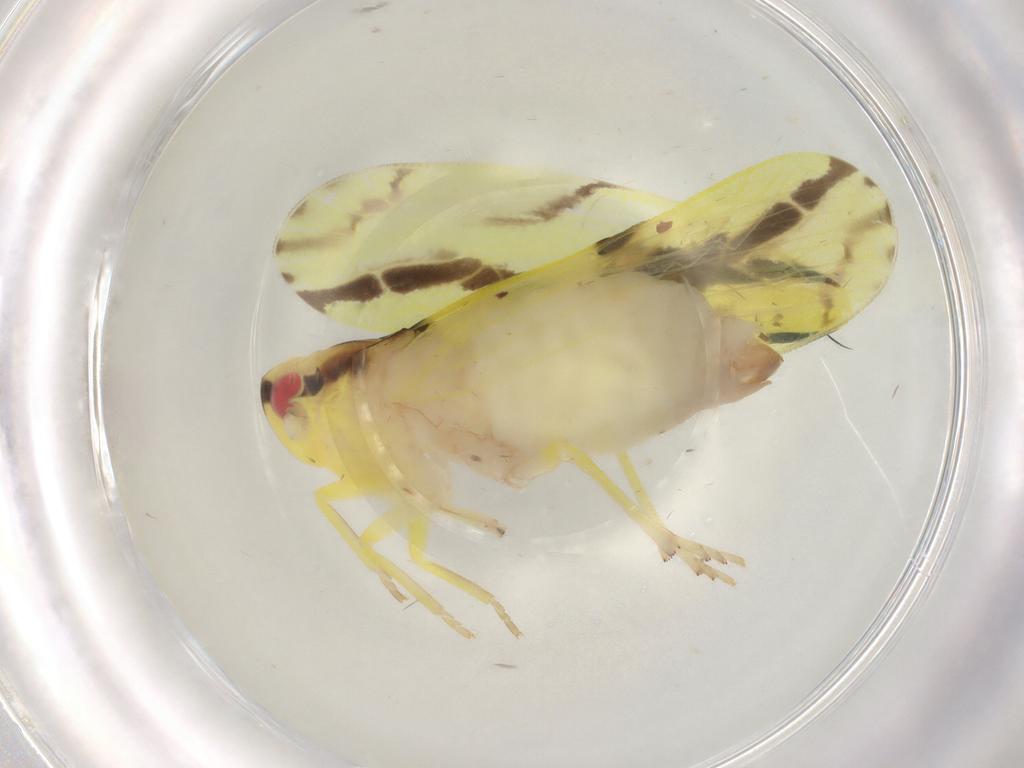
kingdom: Animalia
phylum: Arthropoda
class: Insecta
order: Hemiptera
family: Derbidae
